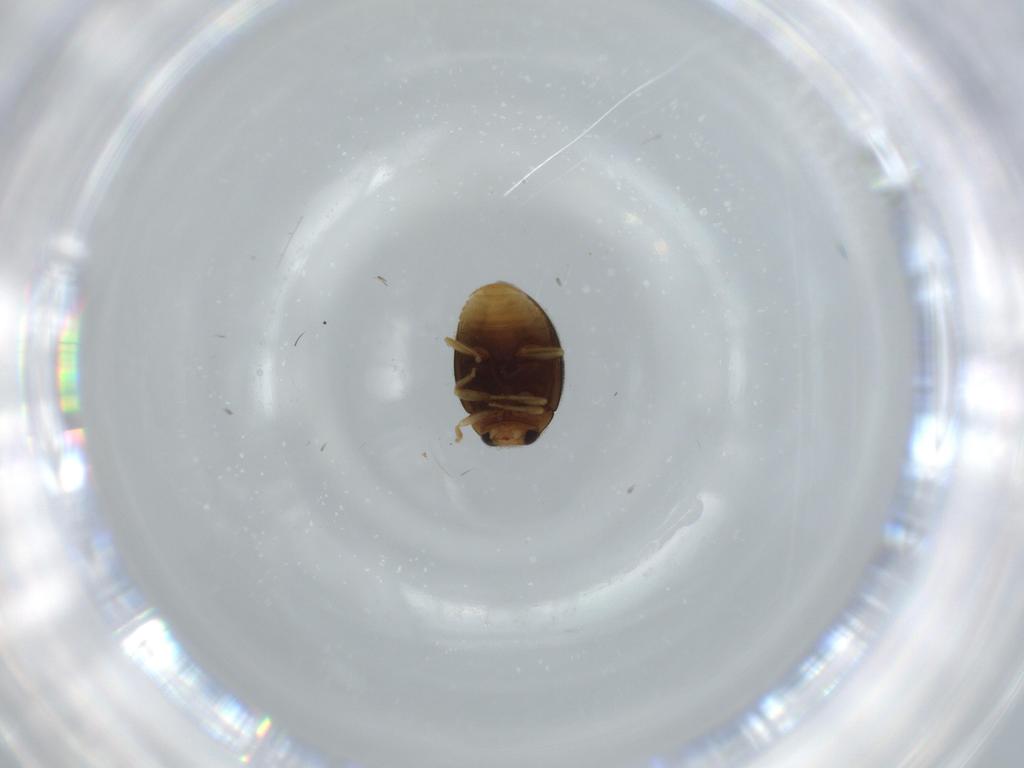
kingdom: Animalia
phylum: Arthropoda
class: Insecta
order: Coleoptera
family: Coccinellidae
